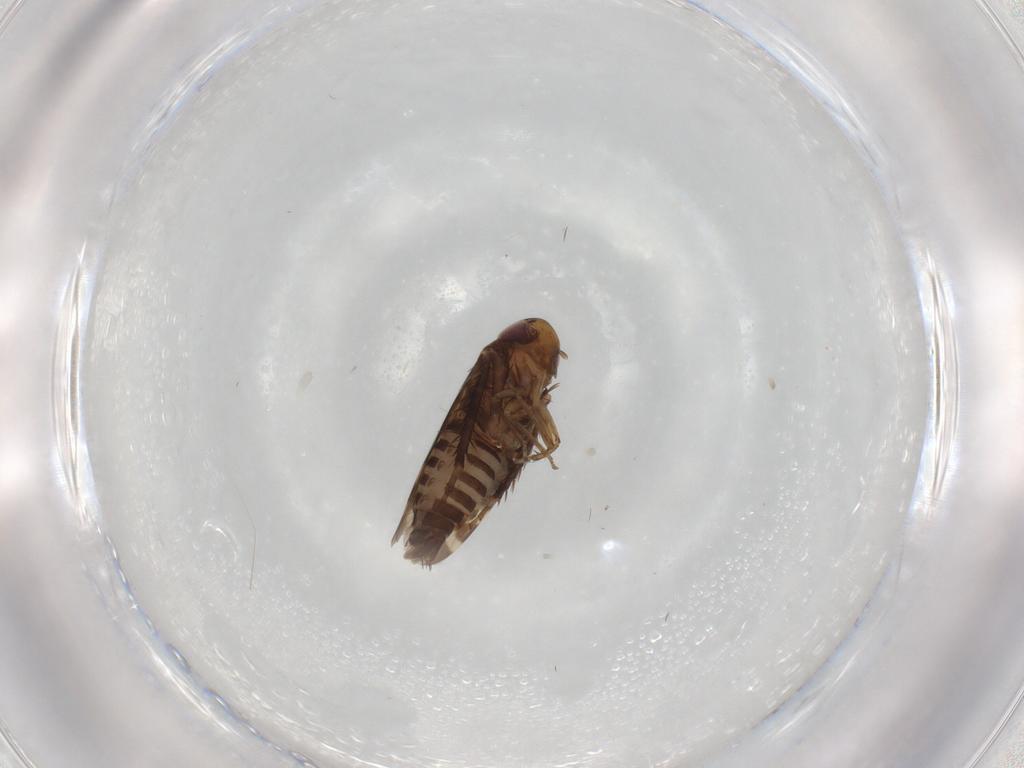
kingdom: Animalia
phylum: Arthropoda
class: Insecta
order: Hemiptera
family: Cicadellidae
